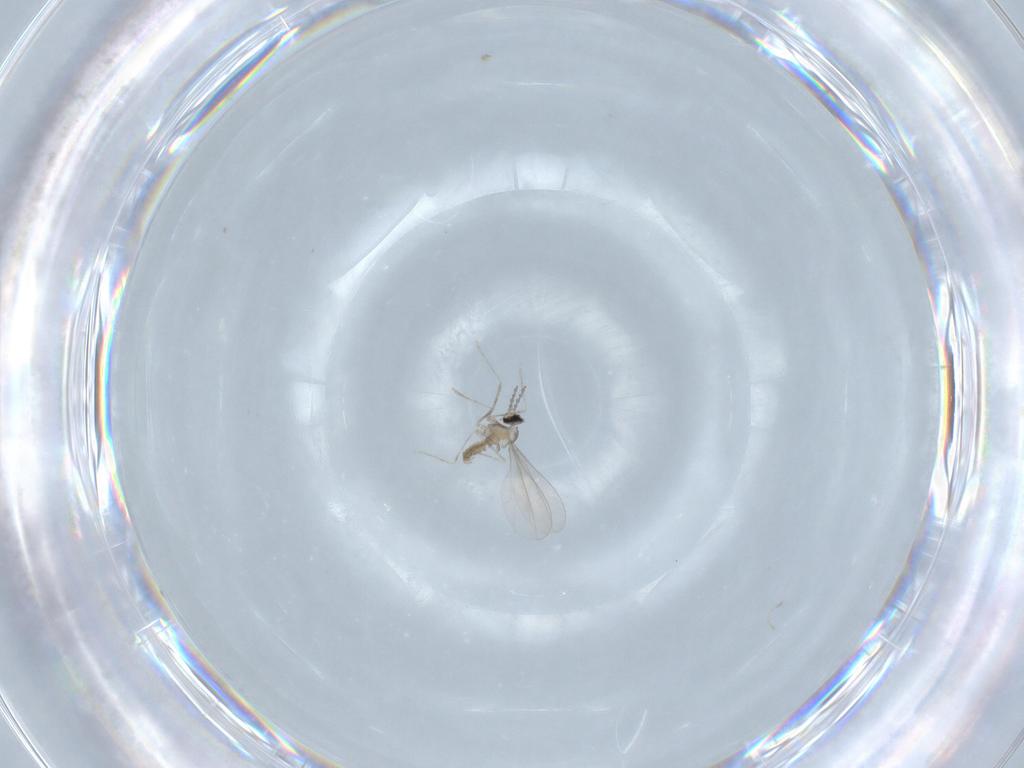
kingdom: Animalia
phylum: Arthropoda
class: Insecta
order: Diptera
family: Cecidomyiidae
